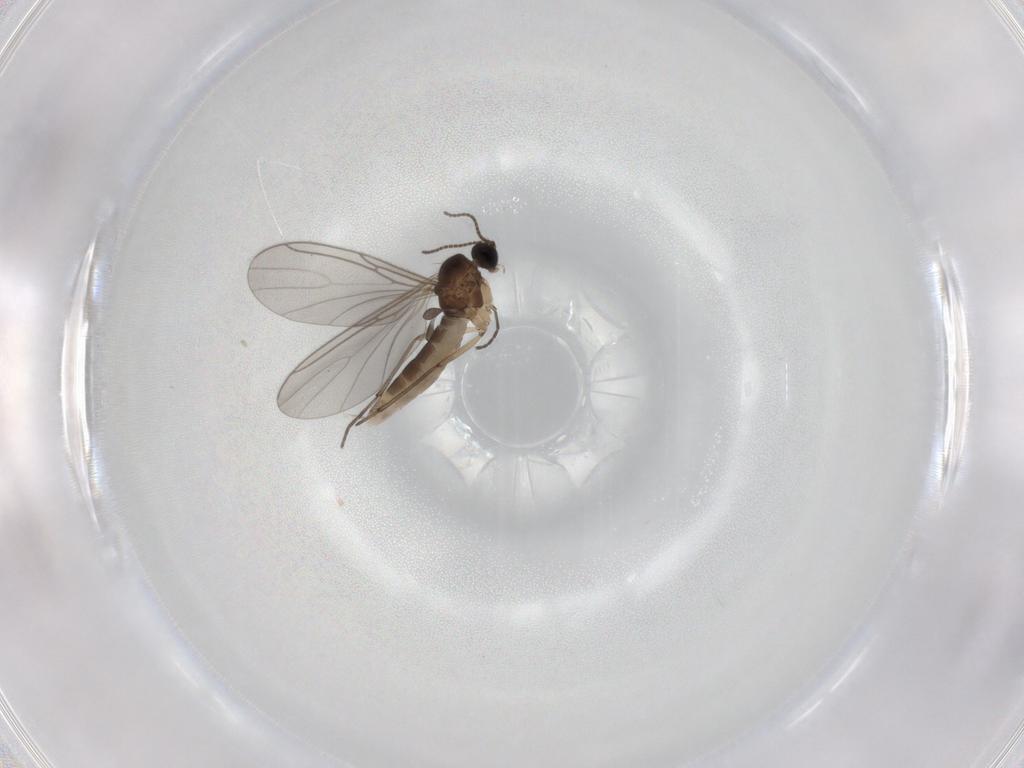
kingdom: Animalia
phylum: Arthropoda
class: Insecta
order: Diptera
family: Sciaridae
